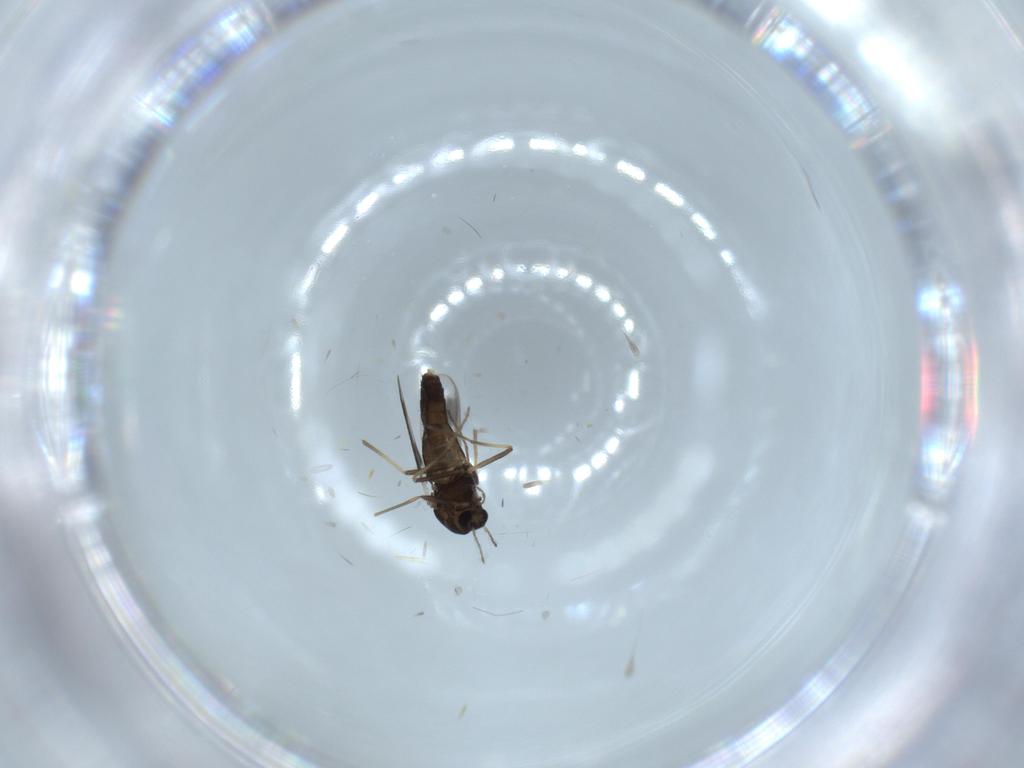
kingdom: Animalia
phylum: Arthropoda
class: Insecta
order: Diptera
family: Chironomidae
